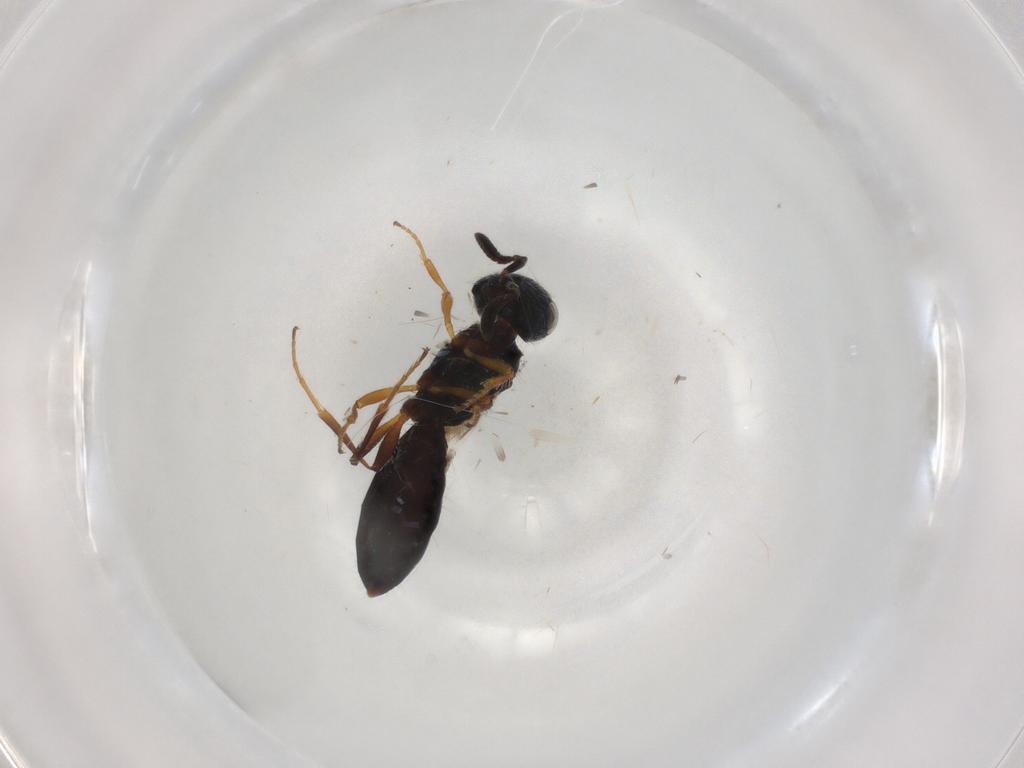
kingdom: Animalia
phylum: Arthropoda
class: Insecta
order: Hymenoptera
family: Scelionidae
